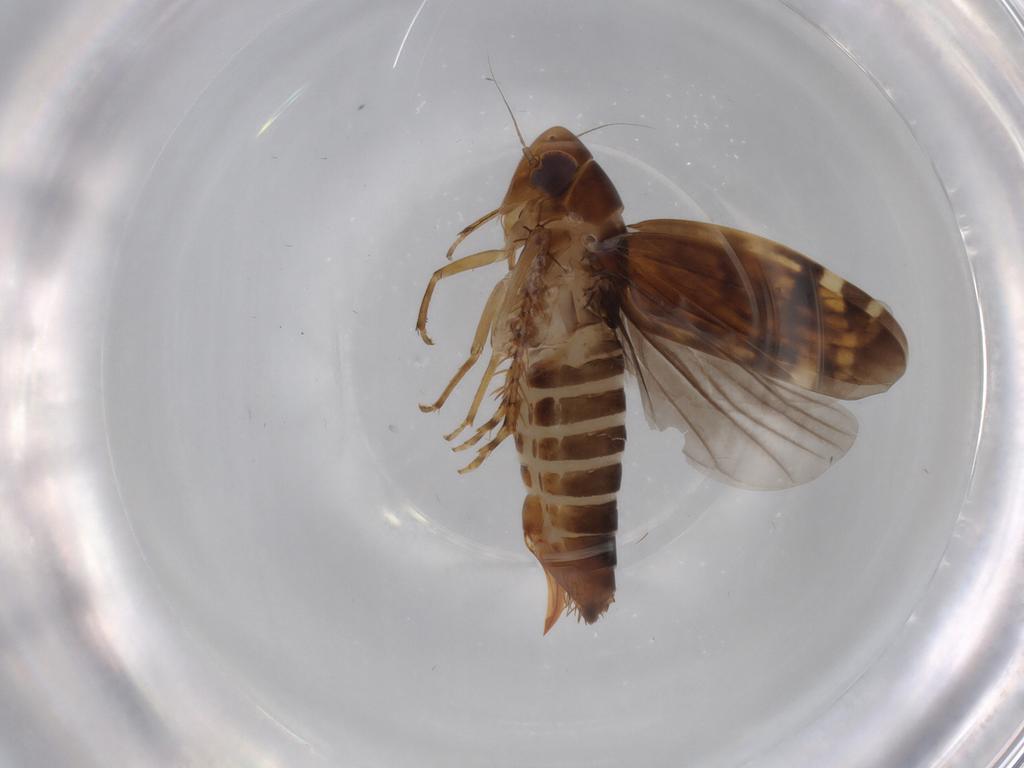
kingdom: Animalia
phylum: Arthropoda
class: Insecta
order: Hemiptera
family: Cicadellidae
